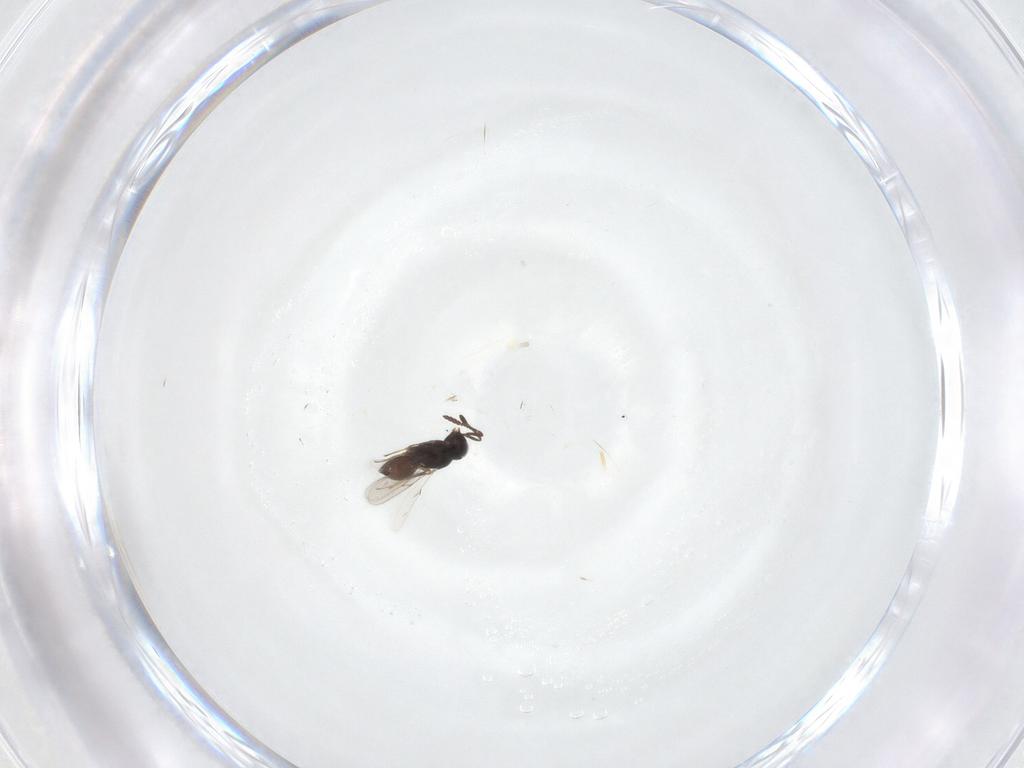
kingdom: Animalia
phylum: Arthropoda
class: Insecta
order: Hymenoptera
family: Scelionidae
